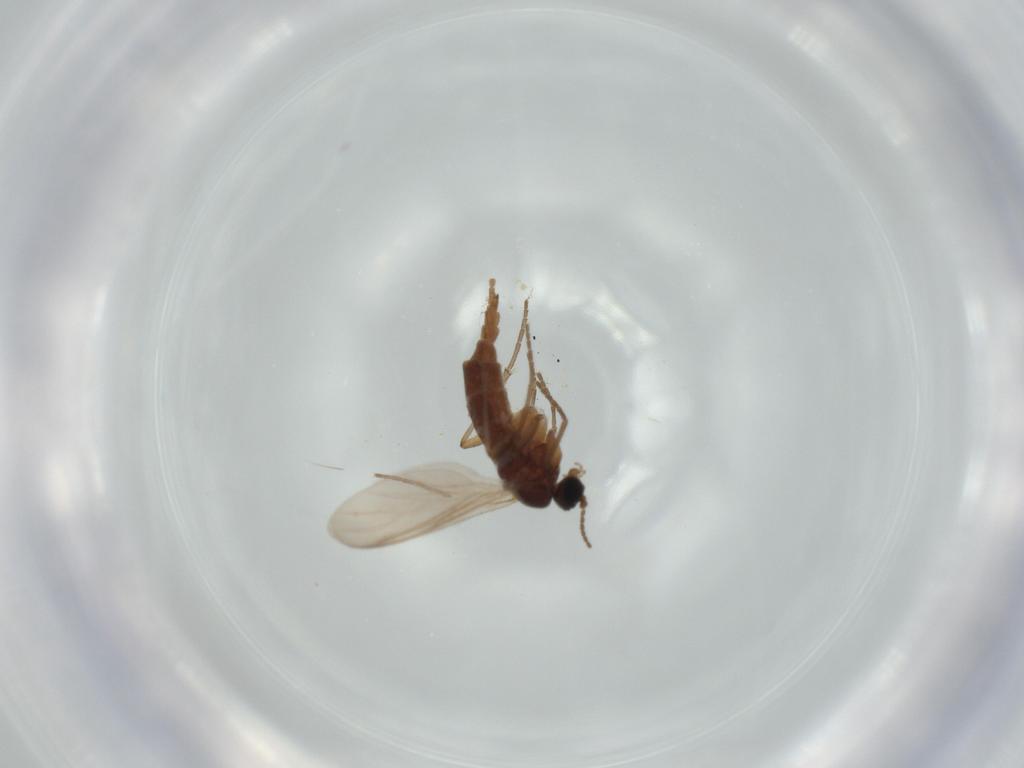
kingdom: Animalia
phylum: Arthropoda
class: Insecta
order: Diptera
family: Sciaridae
